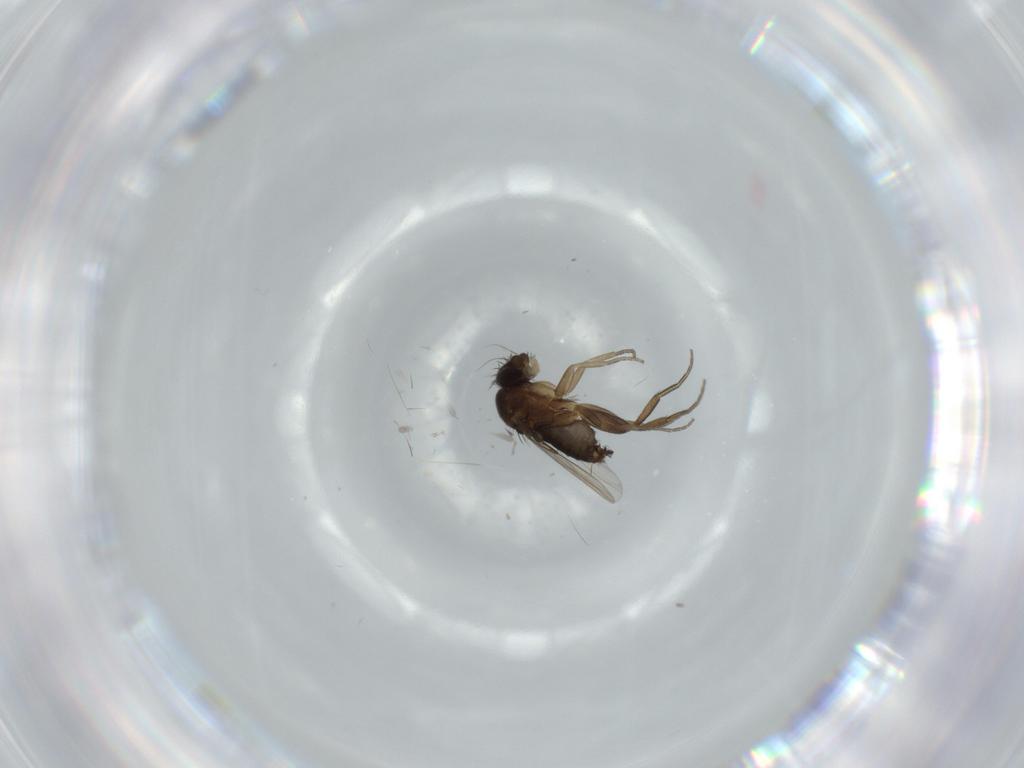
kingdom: Animalia
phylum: Arthropoda
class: Insecta
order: Diptera
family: Phoridae
